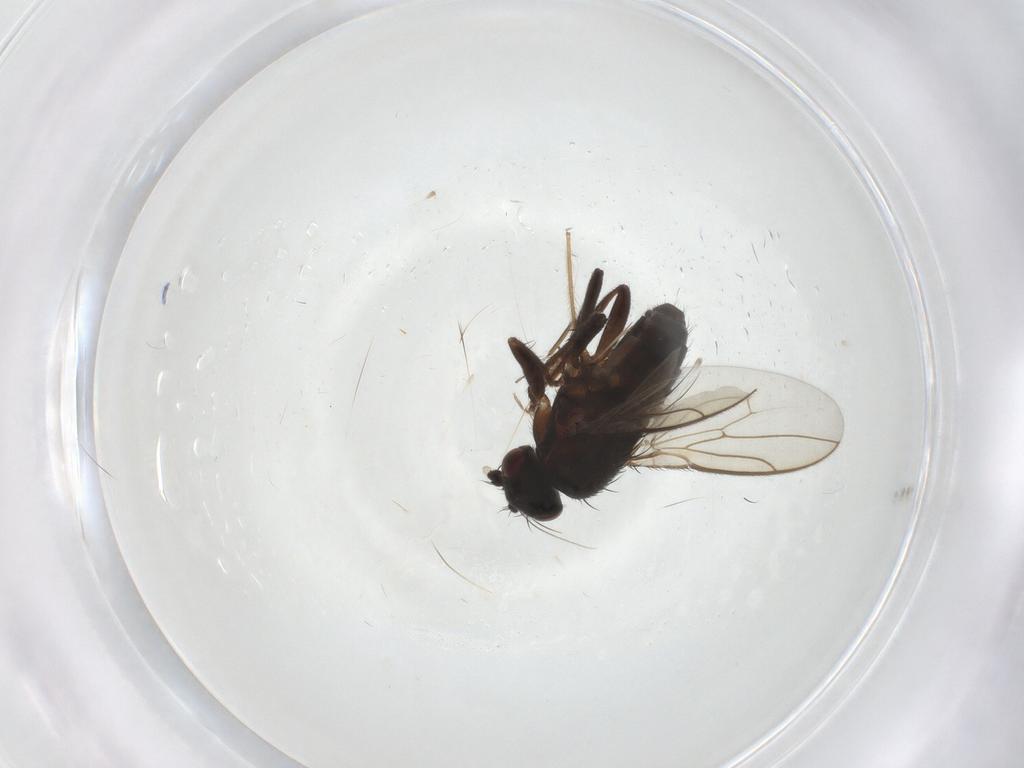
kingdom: Animalia
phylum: Arthropoda
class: Insecta
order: Diptera
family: Sphaeroceridae
